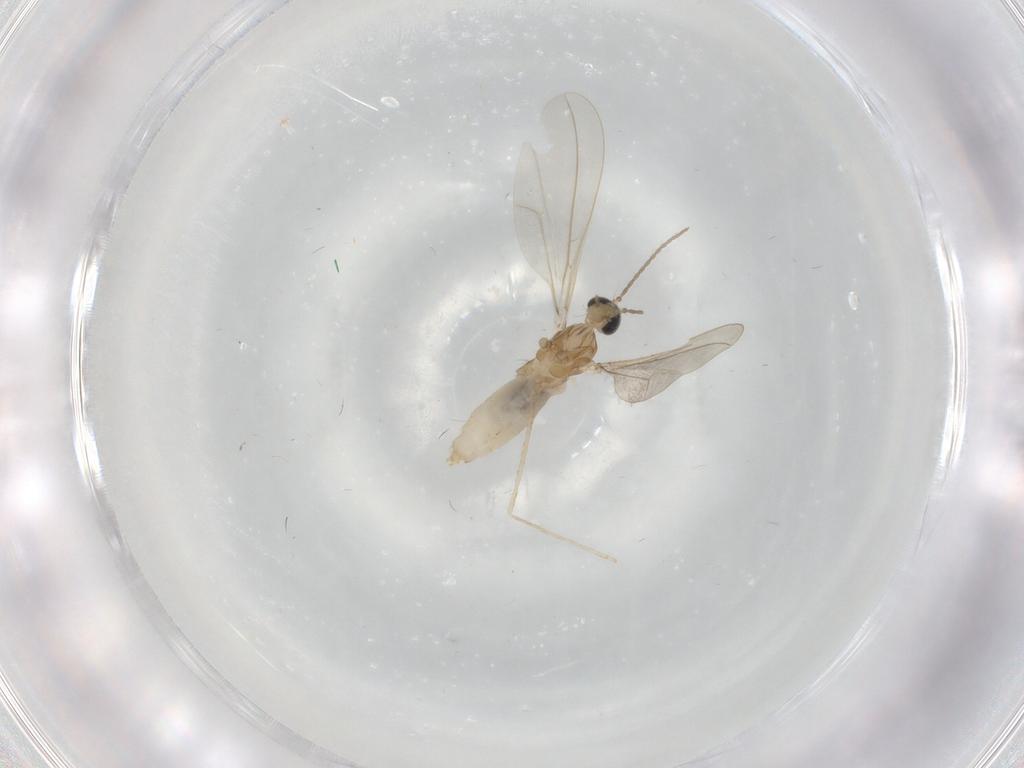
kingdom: Animalia
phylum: Arthropoda
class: Insecta
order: Diptera
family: Cecidomyiidae
